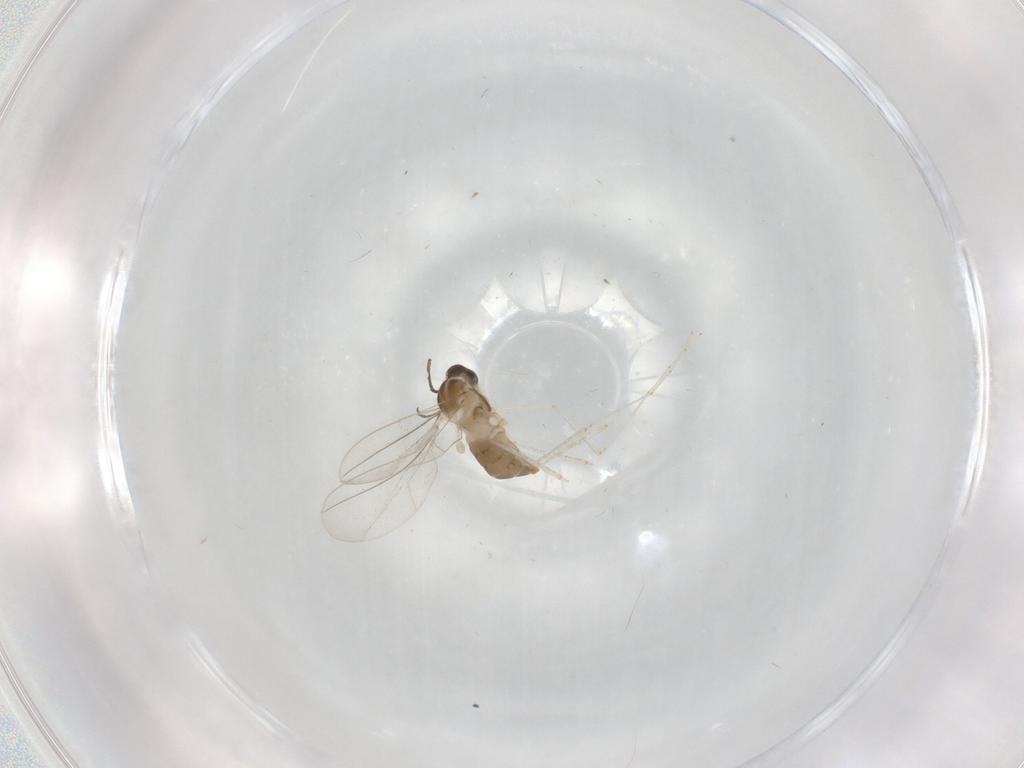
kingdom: Animalia
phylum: Arthropoda
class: Insecta
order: Diptera
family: Cecidomyiidae
